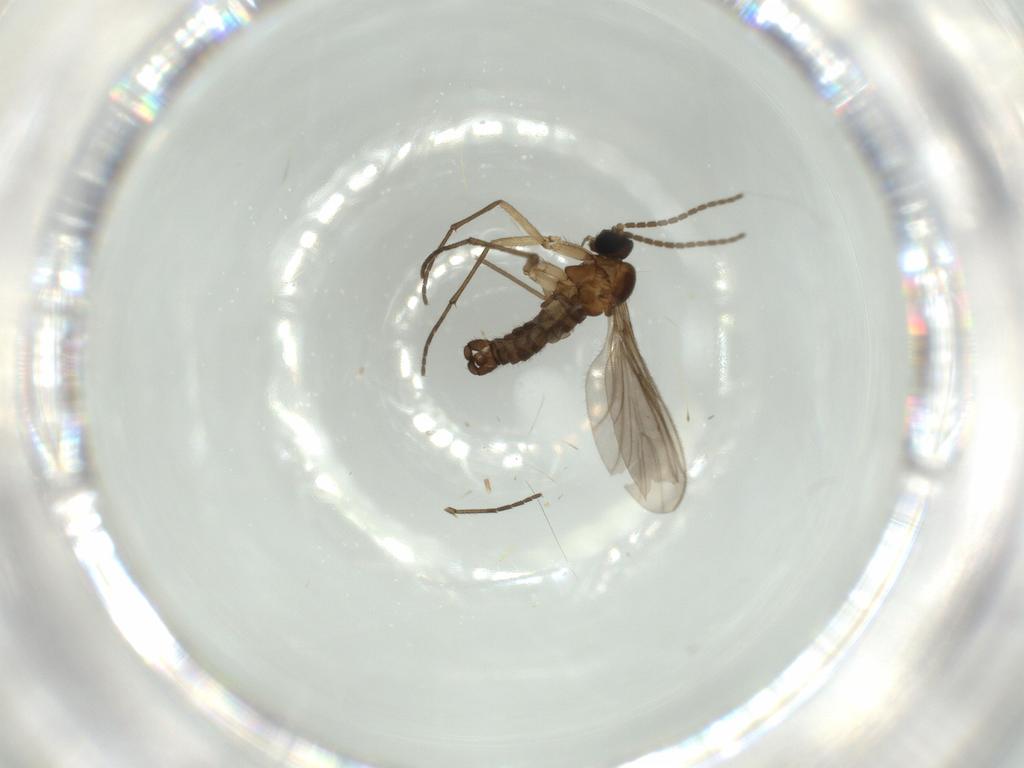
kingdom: Animalia
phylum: Arthropoda
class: Insecta
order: Diptera
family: Sciaridae
